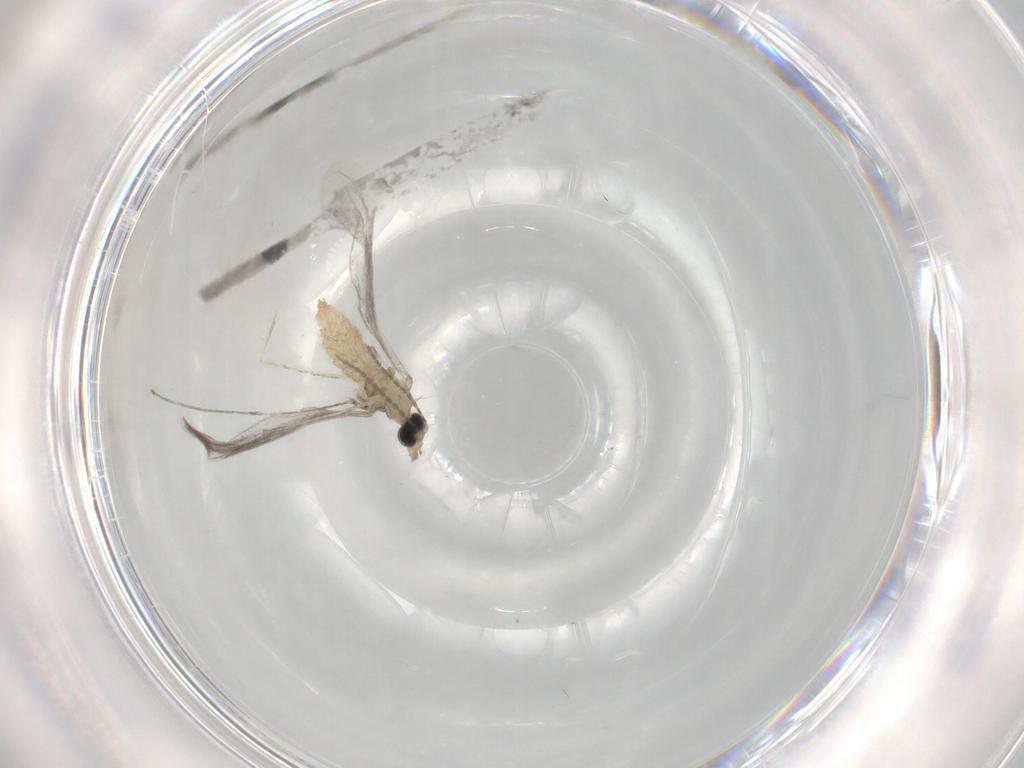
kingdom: Animalia
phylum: Arthropoda
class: Insecta
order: Diptera
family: Cecidomyiidae
